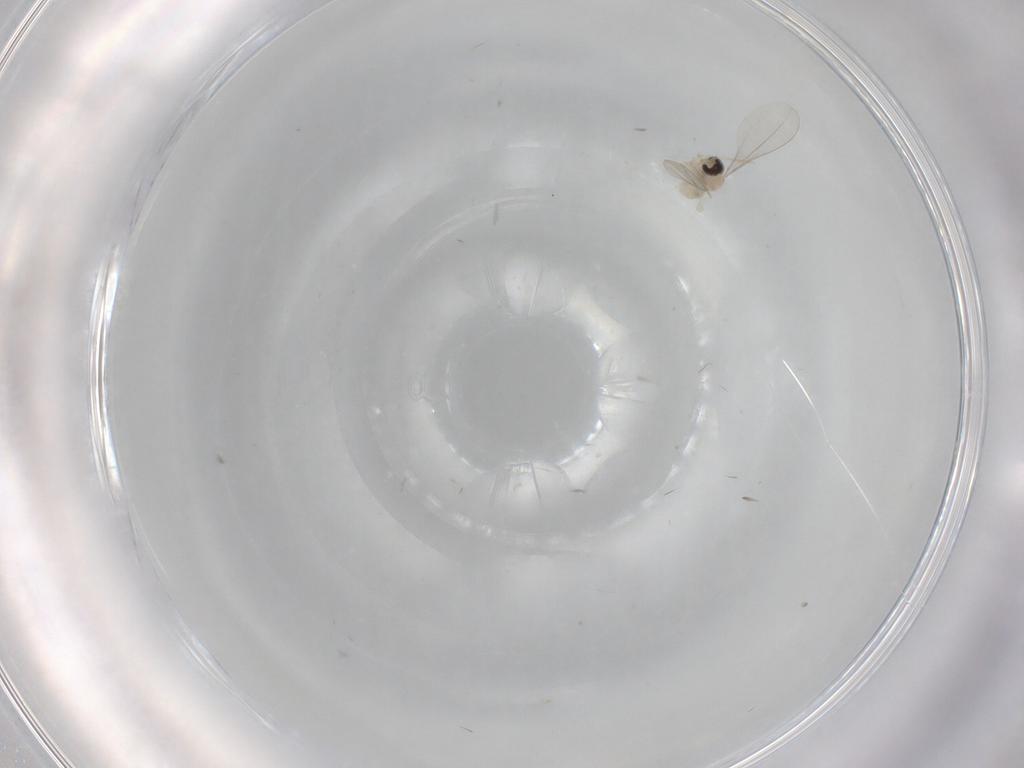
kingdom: Animalia
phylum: Arthropoda
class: Insecta
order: Diptera
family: Cecidomyiidae
